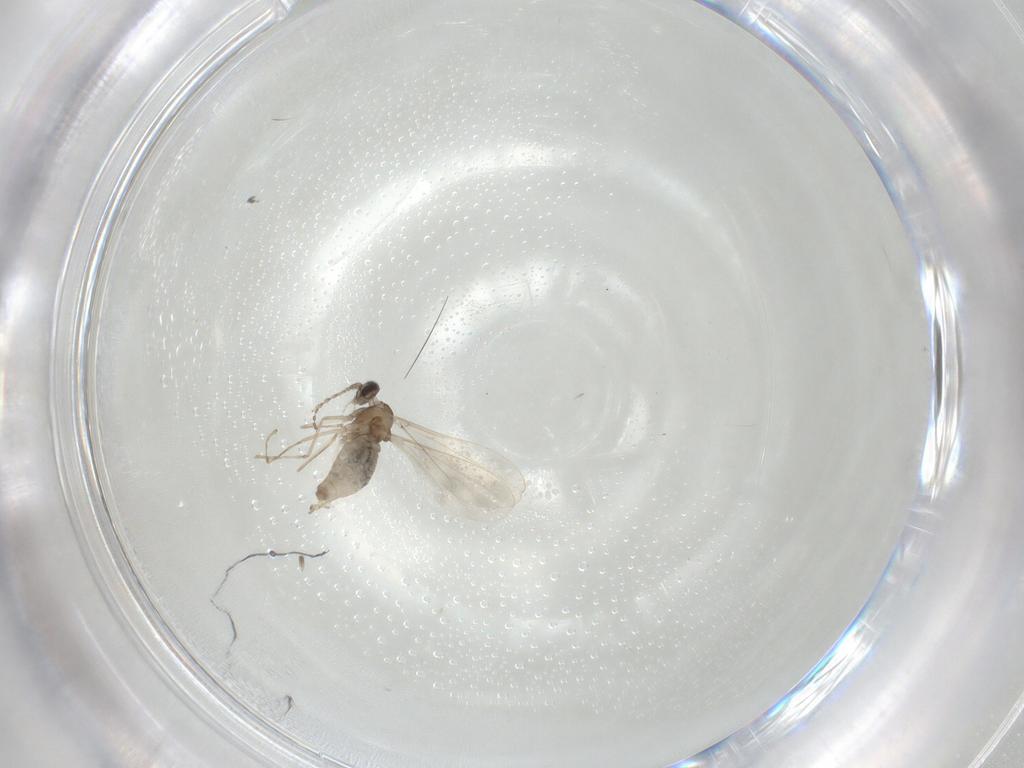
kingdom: Animalia
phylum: Arthropoda
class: Insecta
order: Diptera
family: Cecidomyiidae
